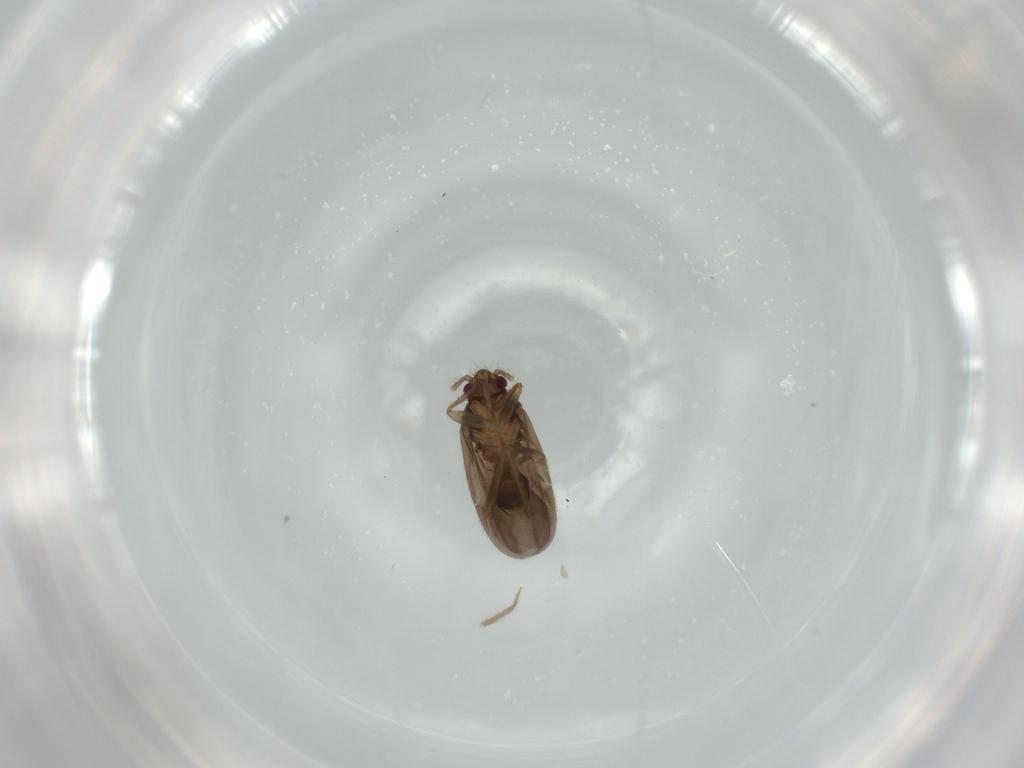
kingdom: Animalia
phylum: Arthropoda
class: Insecta
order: Hemiptera
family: Ceratocombidae
